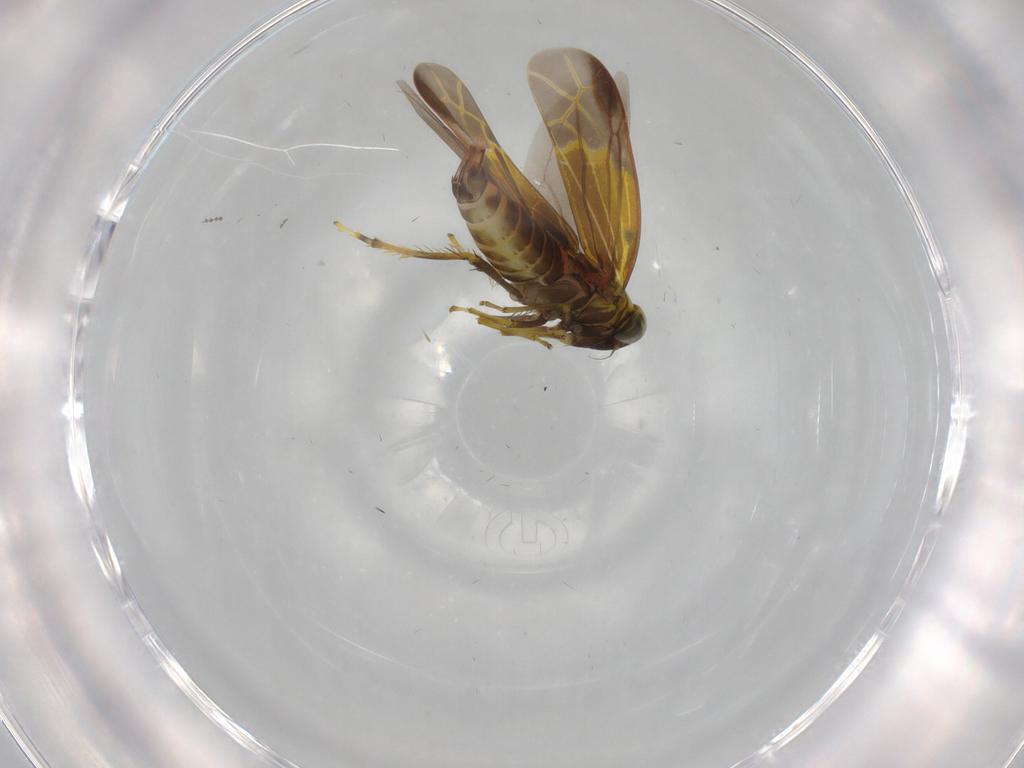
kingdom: Animalia
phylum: Arthropoda
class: Insecta
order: Hemiptera
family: Cicadellidae
